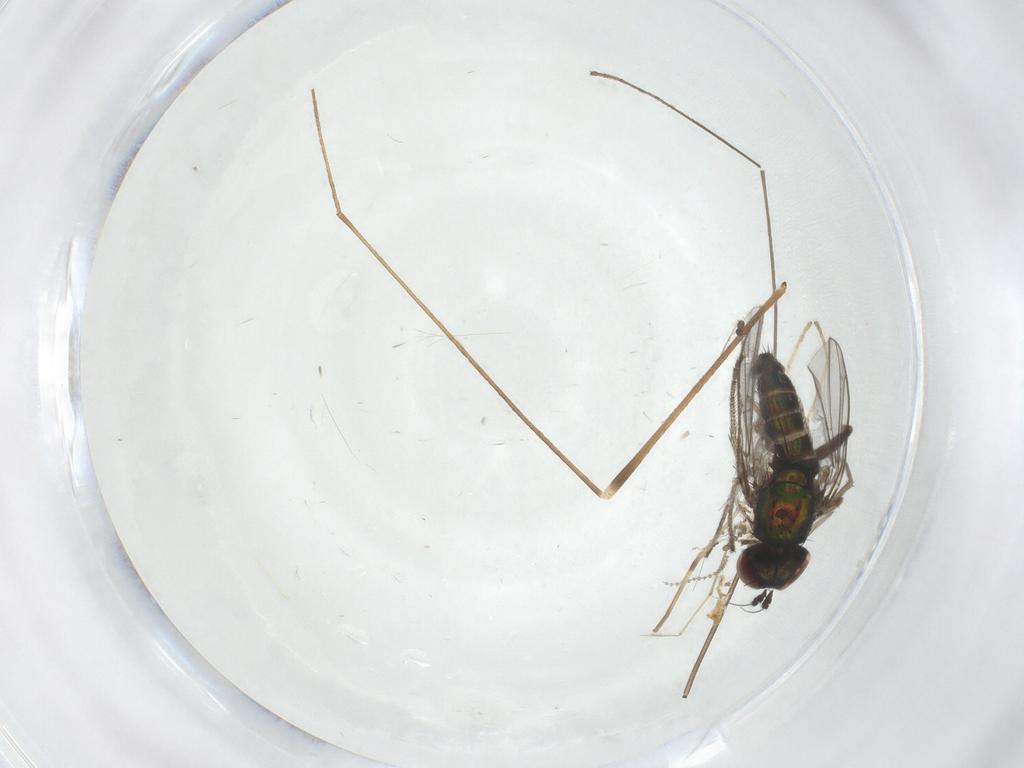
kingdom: Animalia
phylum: Arthropoda
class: Insecta
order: Diptera
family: Limoniidae
